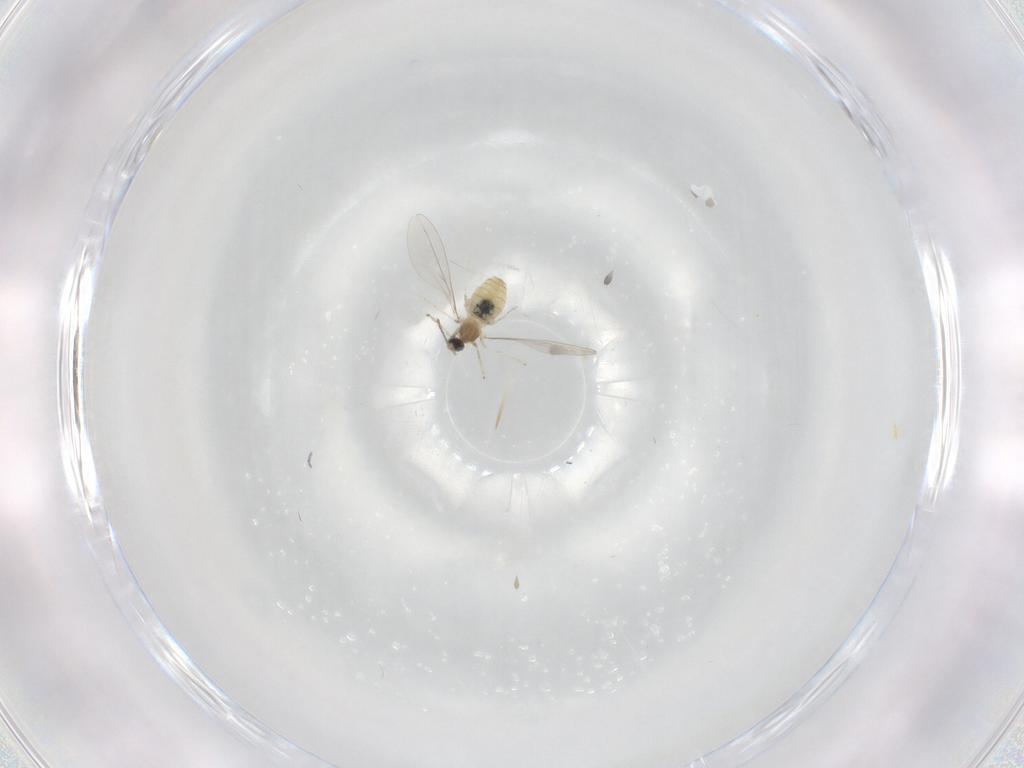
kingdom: Animalia
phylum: Arthropoda
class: Insecta
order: Diptera
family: Cecidomyiidae
